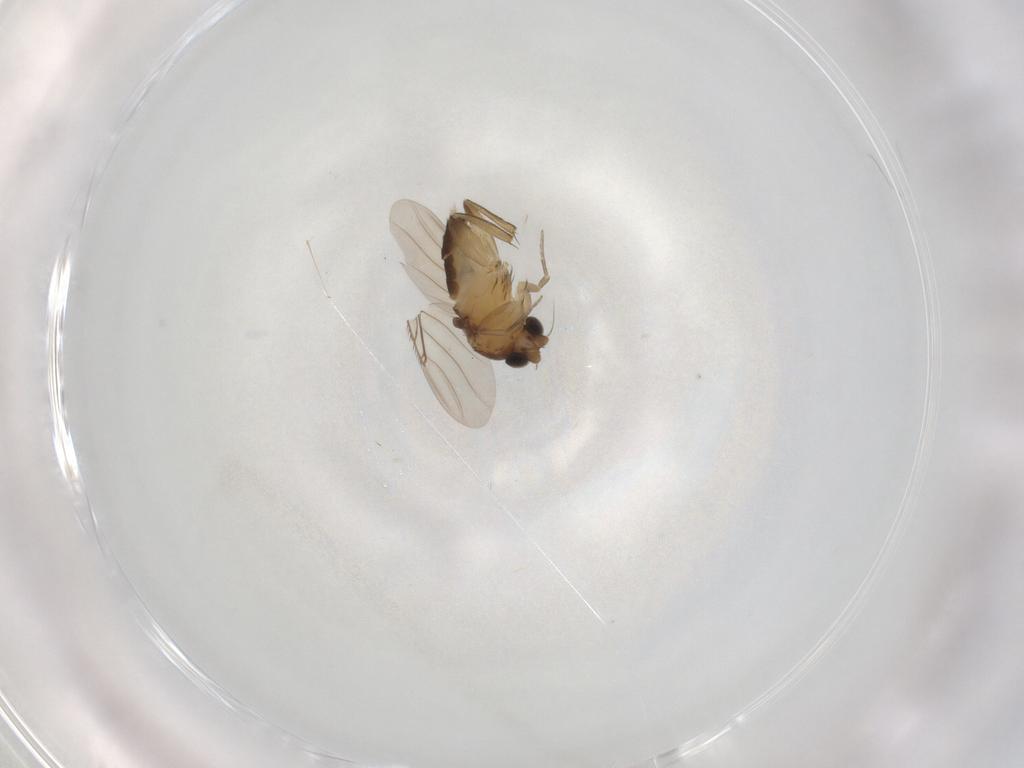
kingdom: Animalia
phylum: Arthropoda
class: Insecta
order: Diptera
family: Phoridae
